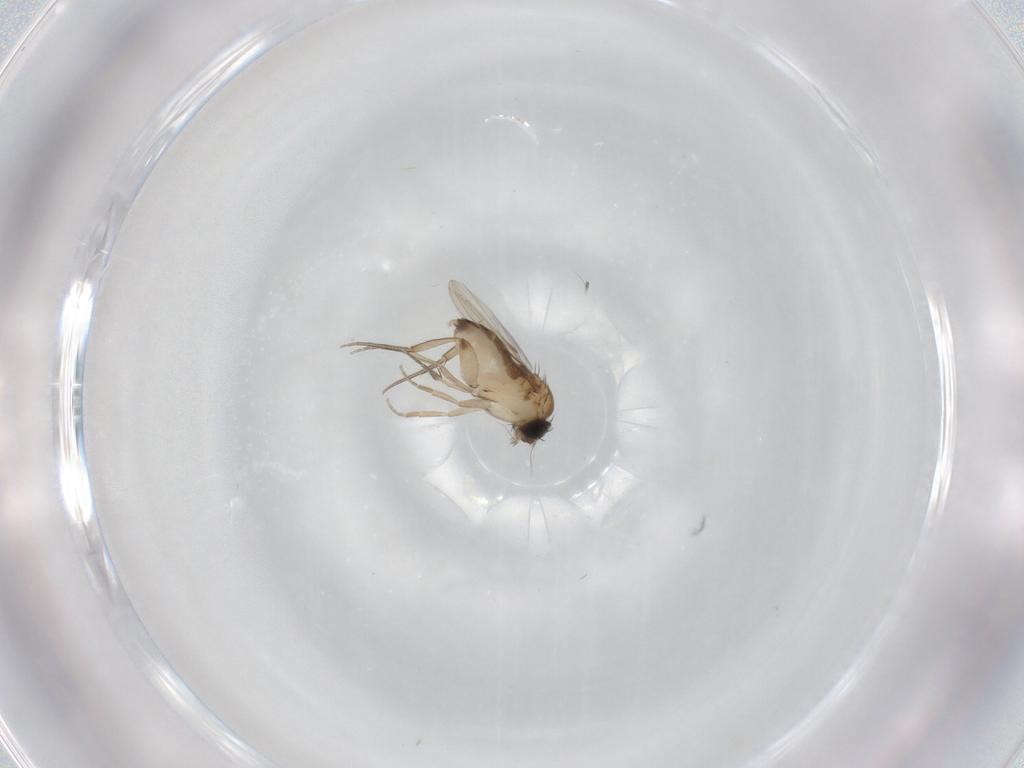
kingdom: Animalia
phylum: Arthropoda
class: Insecta
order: Diptera
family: Phoridae
